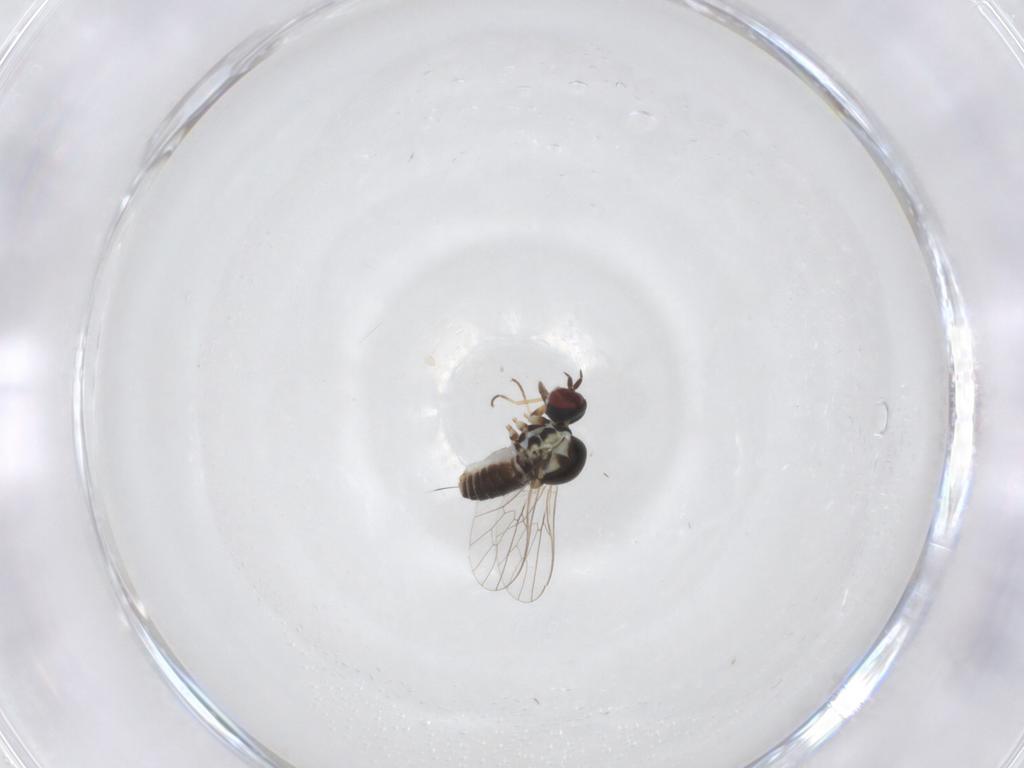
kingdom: Animalia
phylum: Arthropoda
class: Insecta
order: Diptera
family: Mythicomyiidae
